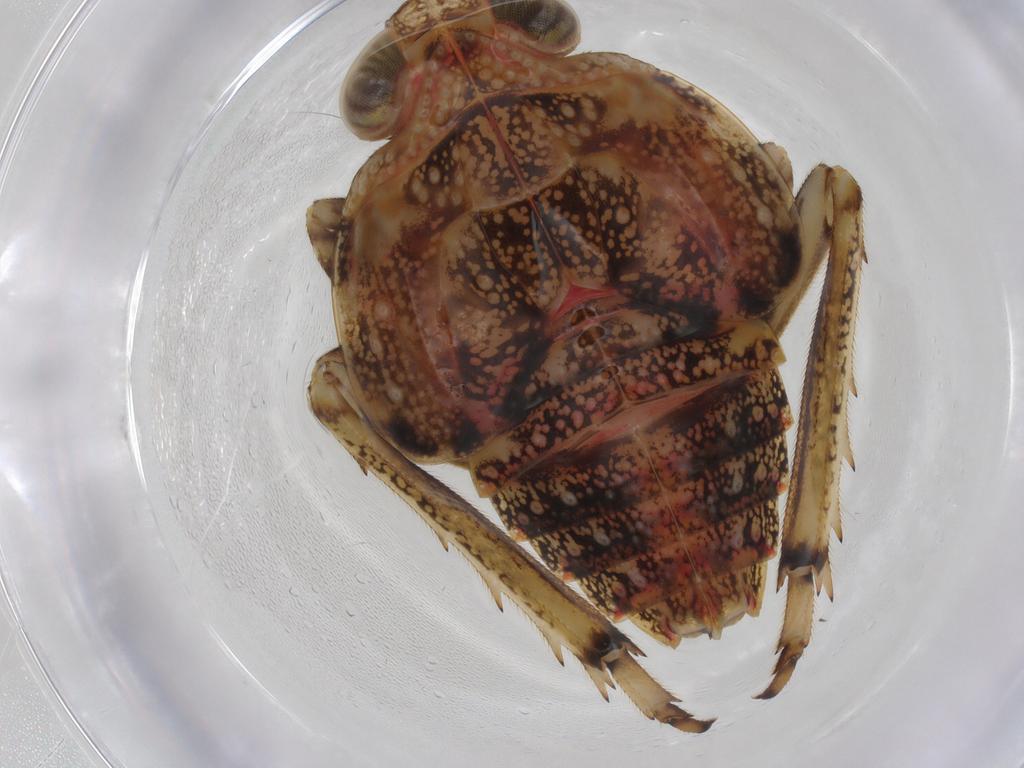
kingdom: Animalia
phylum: Arthropoda
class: Insecta
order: Hemiptera
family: Issidae
